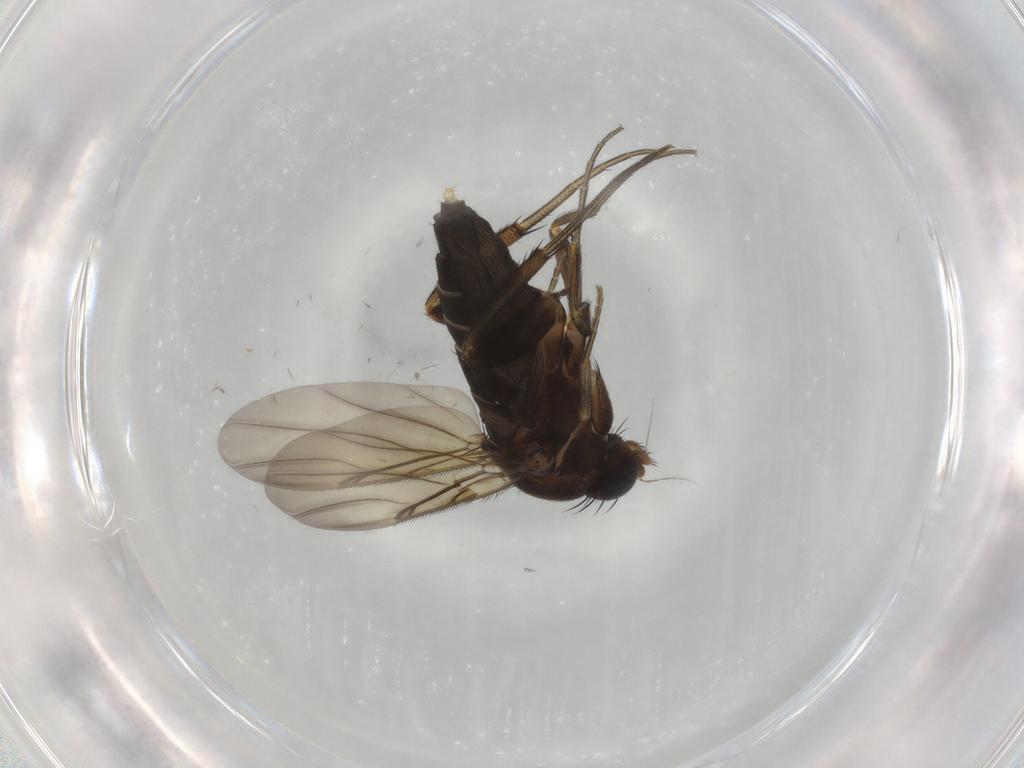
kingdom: Animalia
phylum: Arthropoda
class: Insecta
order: Diptera
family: Phoridae
